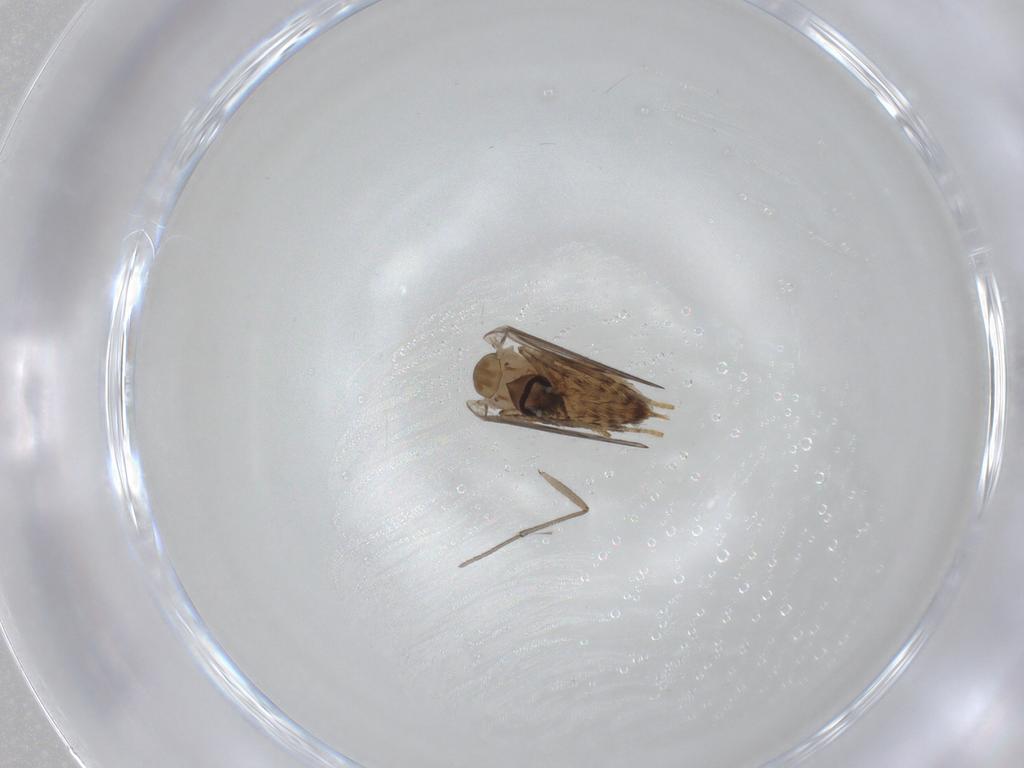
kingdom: Animalia
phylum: Arthropoda
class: Insecta
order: Diptera
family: Psychodidae
